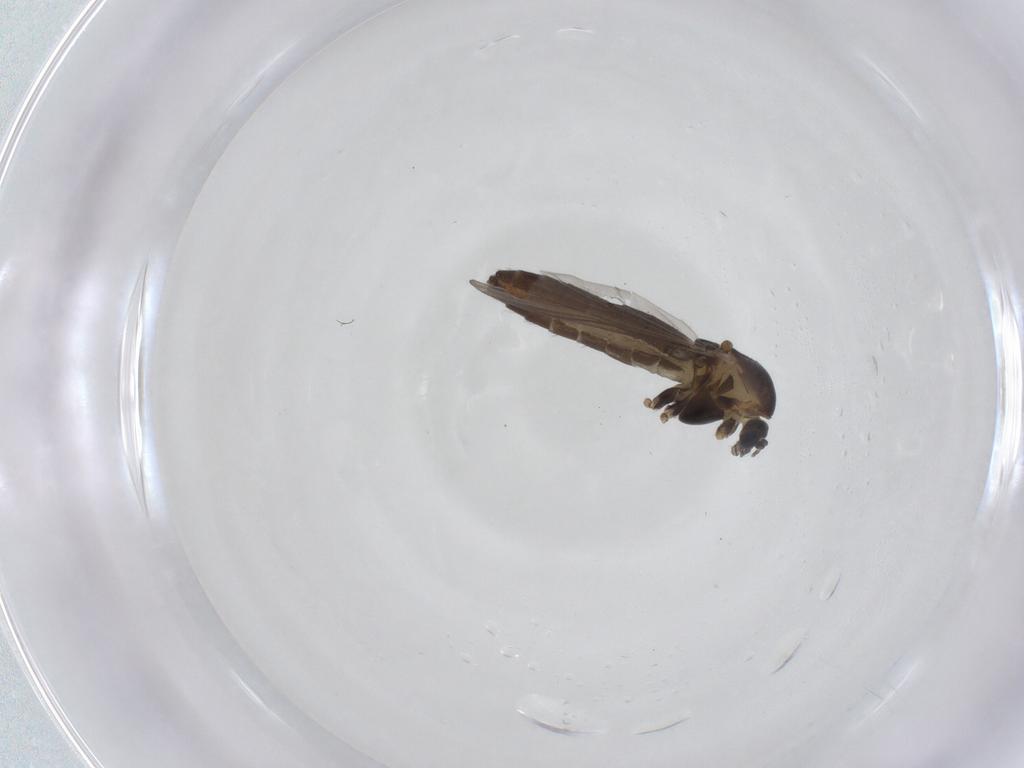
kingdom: Animalia
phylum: Arthropoda
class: Insecta
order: Diptera
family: Chironomidae
